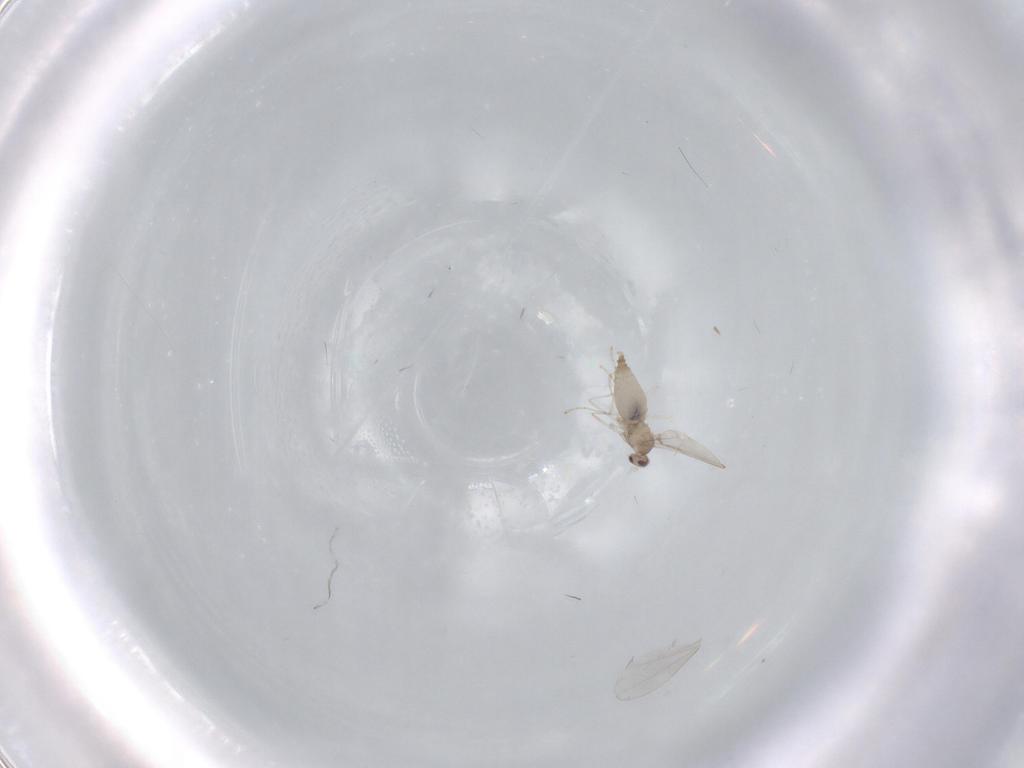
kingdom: Animalia
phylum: Arthropoda
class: Insecta
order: Diptera
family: Cecidomyiidae
